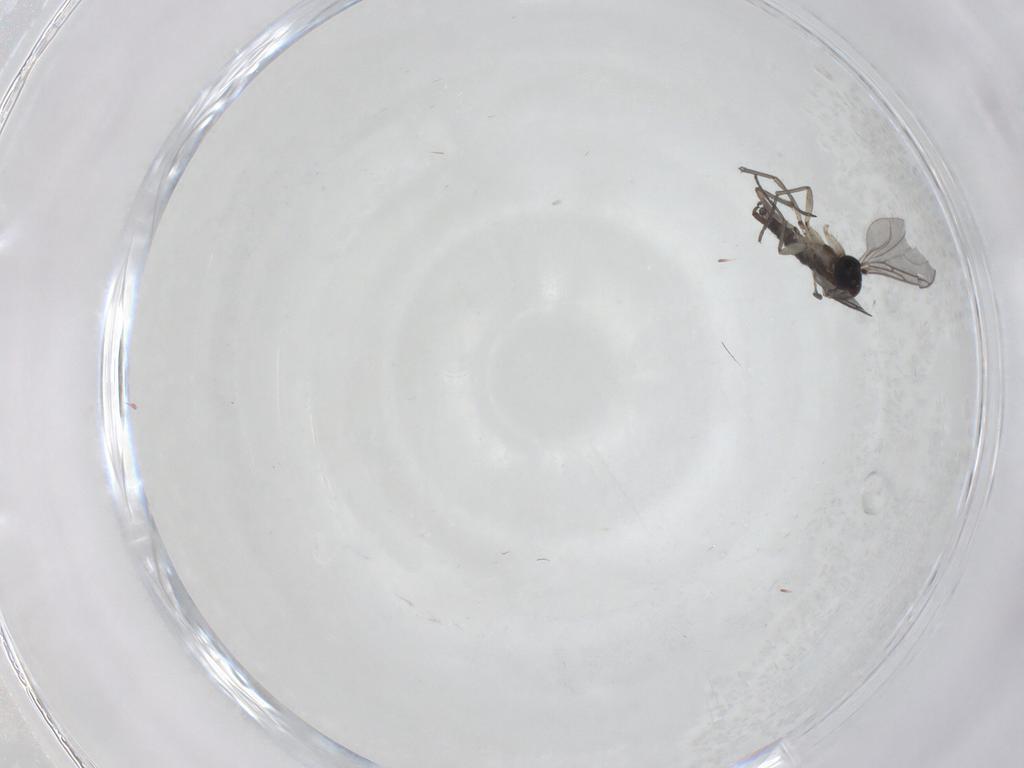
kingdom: Animalia
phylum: Arthropoda
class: Insecta
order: Diptera
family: Sciaridae
